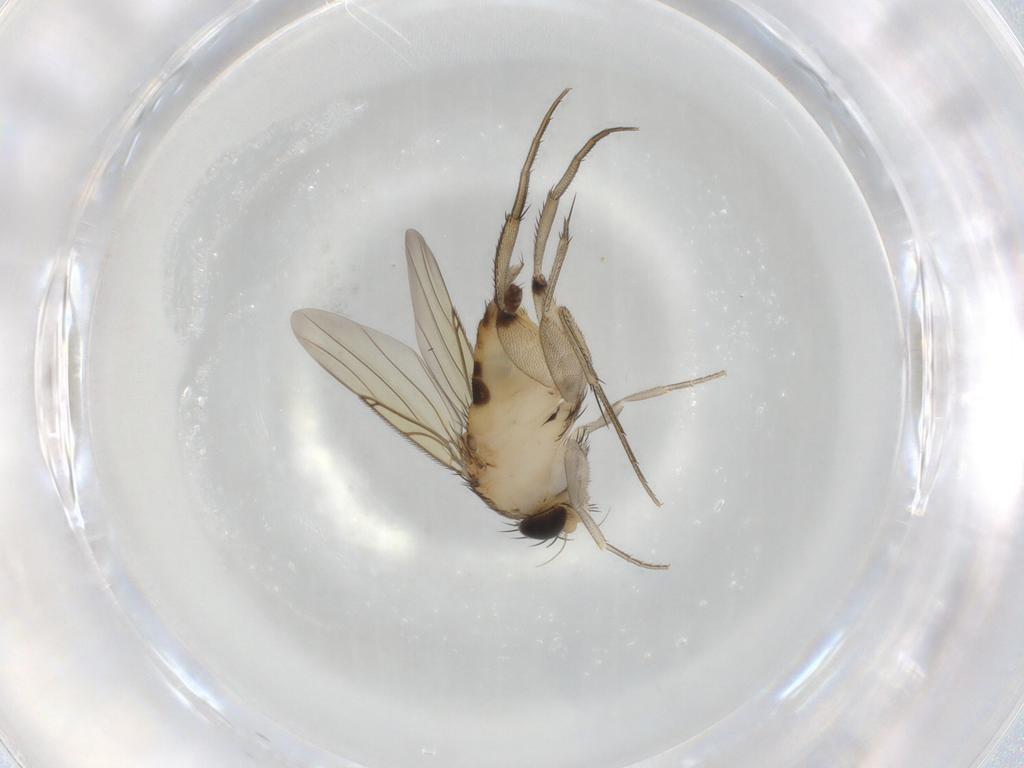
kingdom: Animalia
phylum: Arthropoda
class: Insecta
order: Diptera
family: Phoridae
